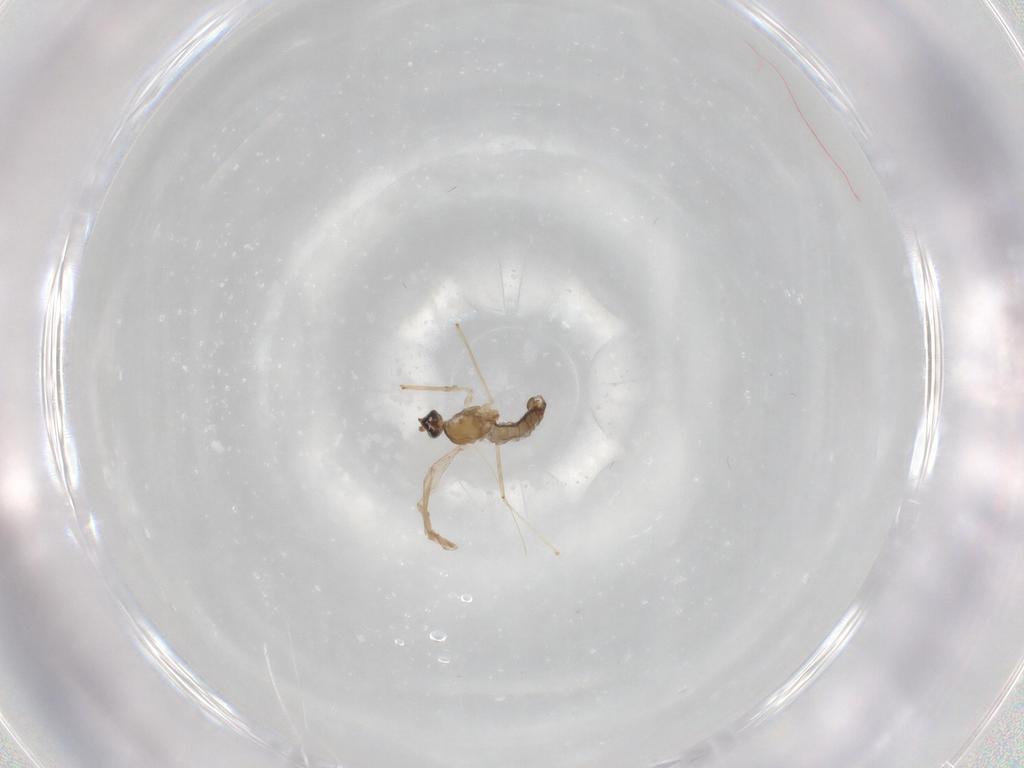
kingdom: Animalia
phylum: Arthropoda
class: Insecta
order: Diptera
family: Cecidomyiidae
